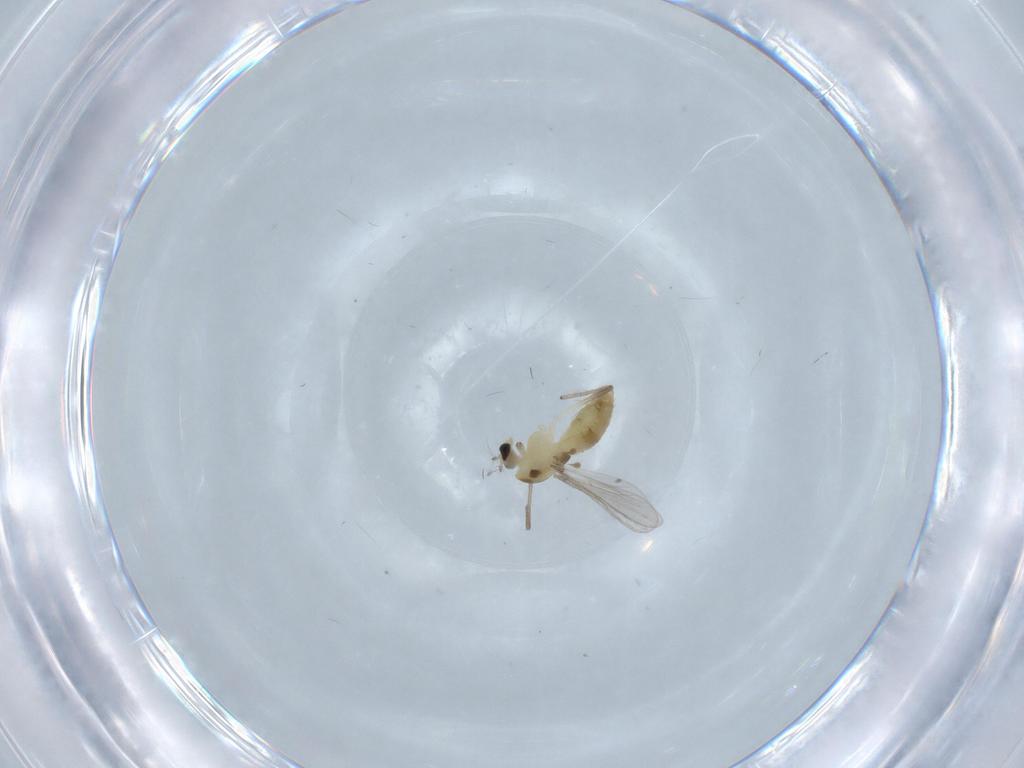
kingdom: Animalia
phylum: Arthropoda
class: Insecta
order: Diptera
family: Chironomidae
